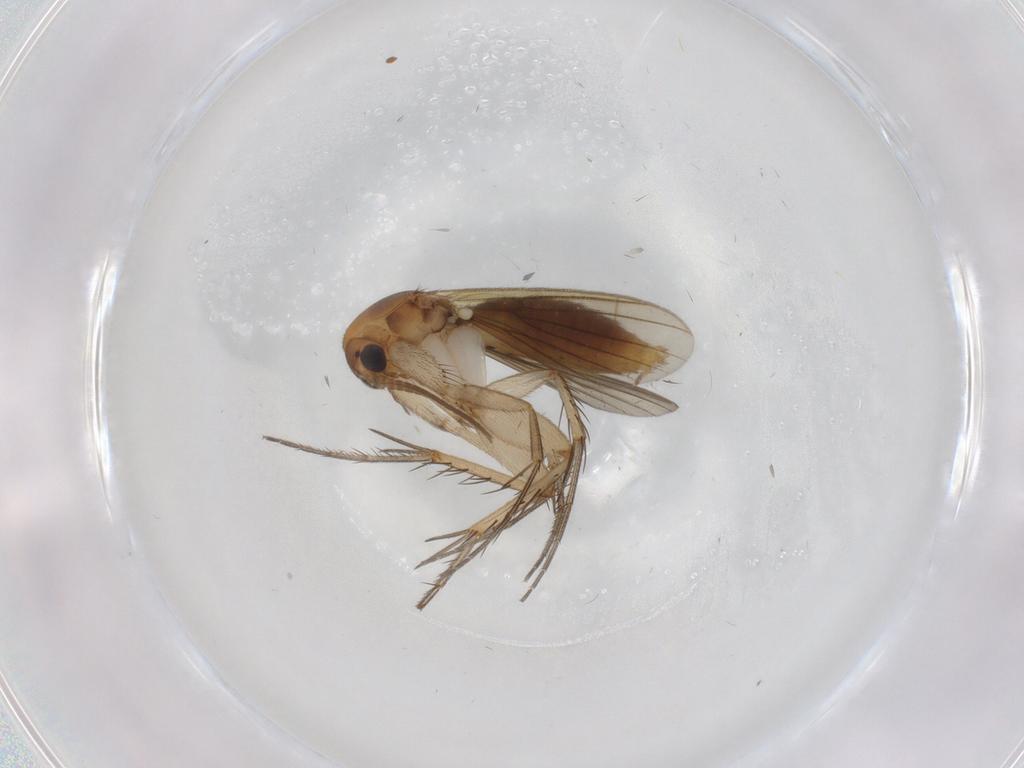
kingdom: Animalia
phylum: Arthropoda
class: Insecta
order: Diptera
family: Mycetophilidae
